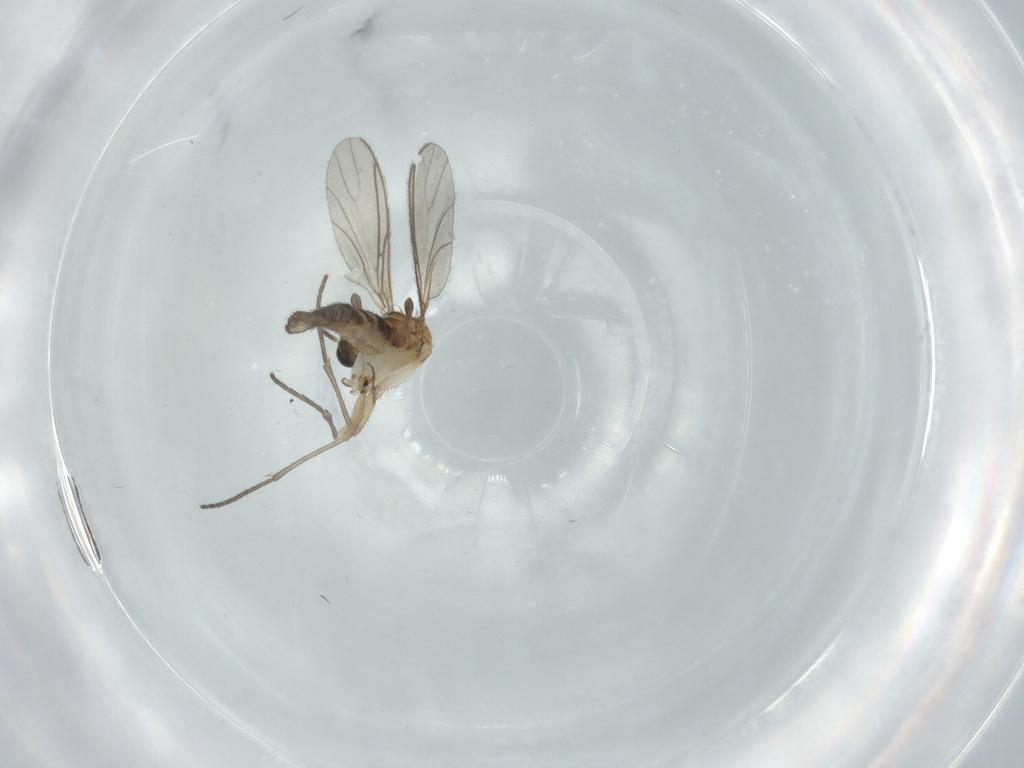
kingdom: Animalia
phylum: Arthropoda
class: Insecta
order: Diptera
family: Sciaridae
